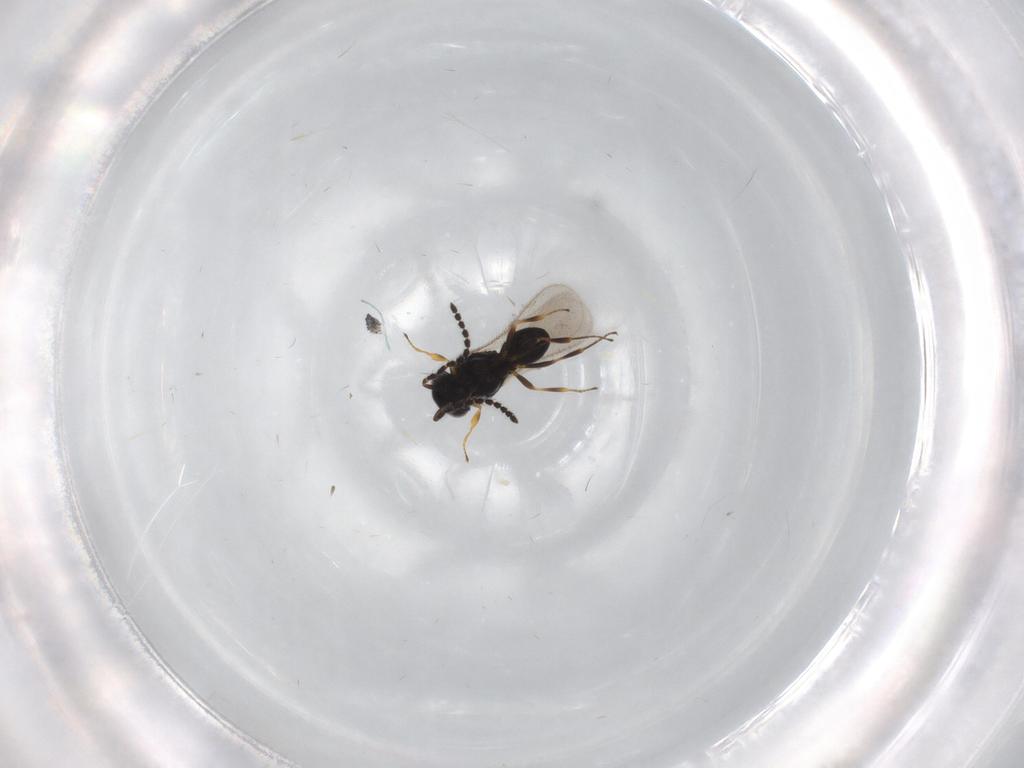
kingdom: Animalia
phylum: Arthropoda
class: Insecta
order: Hymenoptera
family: Scelionidae
